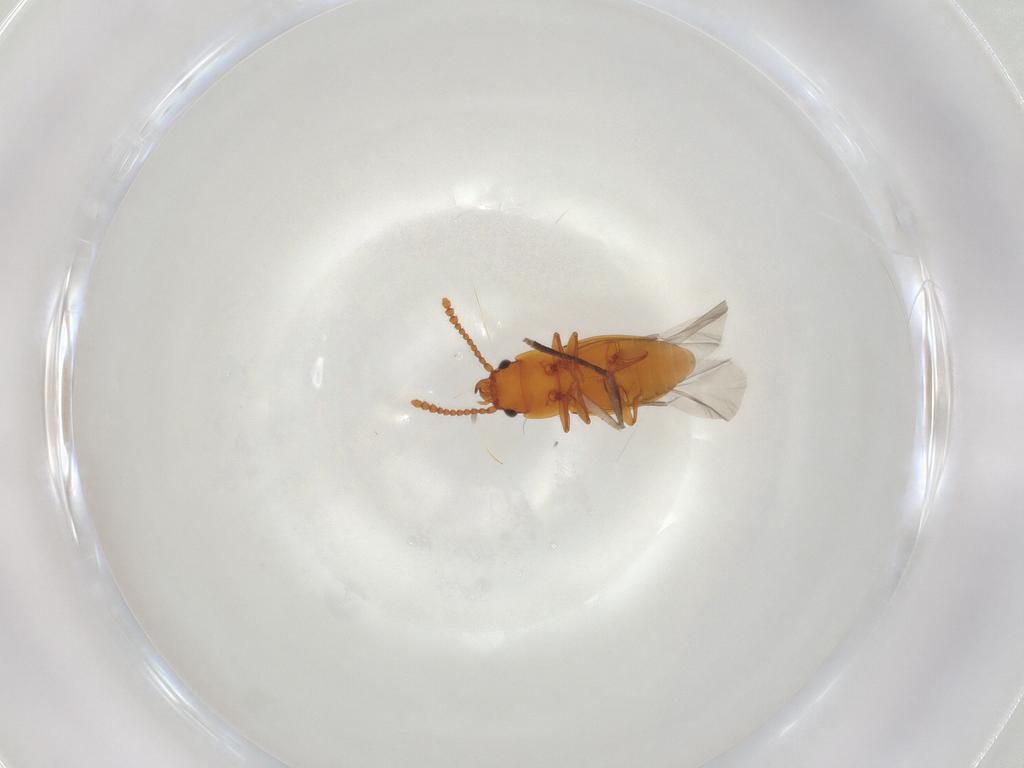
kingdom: Animalia
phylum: Arthropoda
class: Insecta
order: Coleoptera
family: Laemophloeidae
